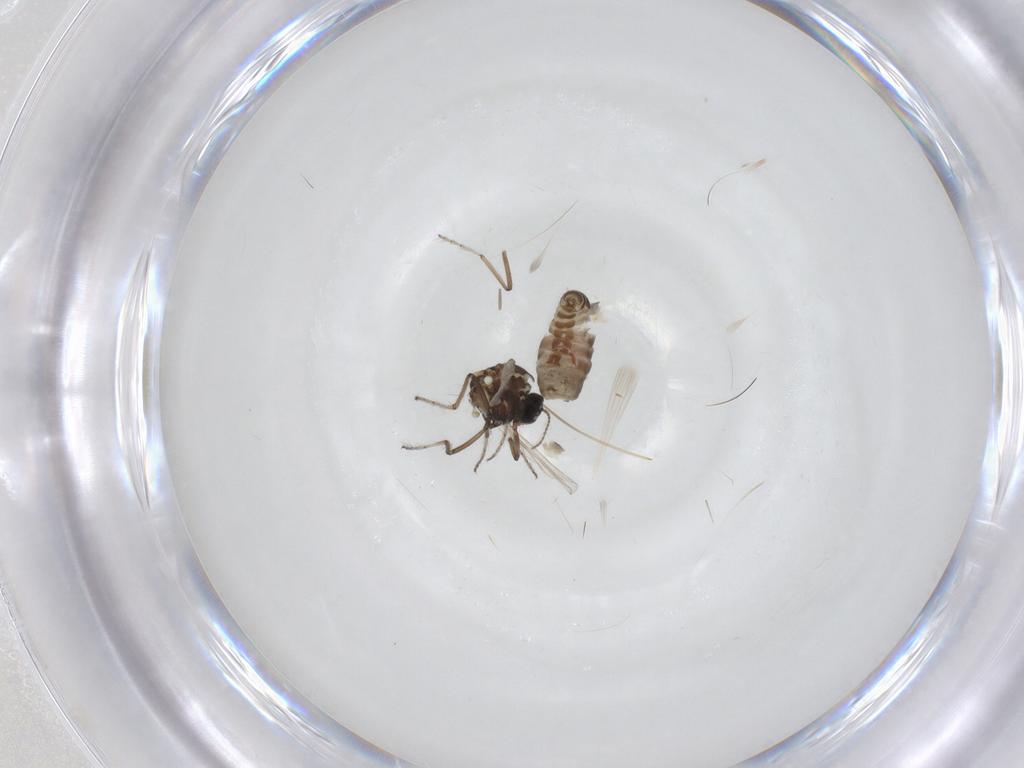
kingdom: Animalia
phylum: Arthropoda
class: Insecta
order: Diptera
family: Ceratopogonidae
